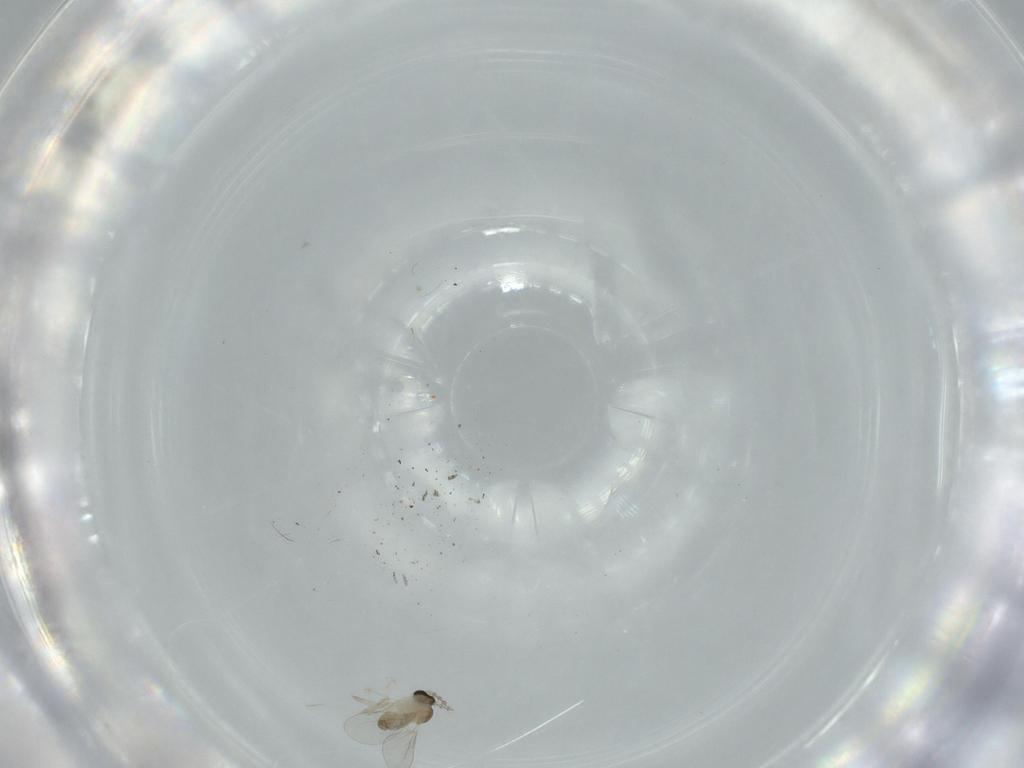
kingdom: Animalia
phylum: Arthropoda
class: Insecta
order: Diptera
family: Cecidomyiidae
